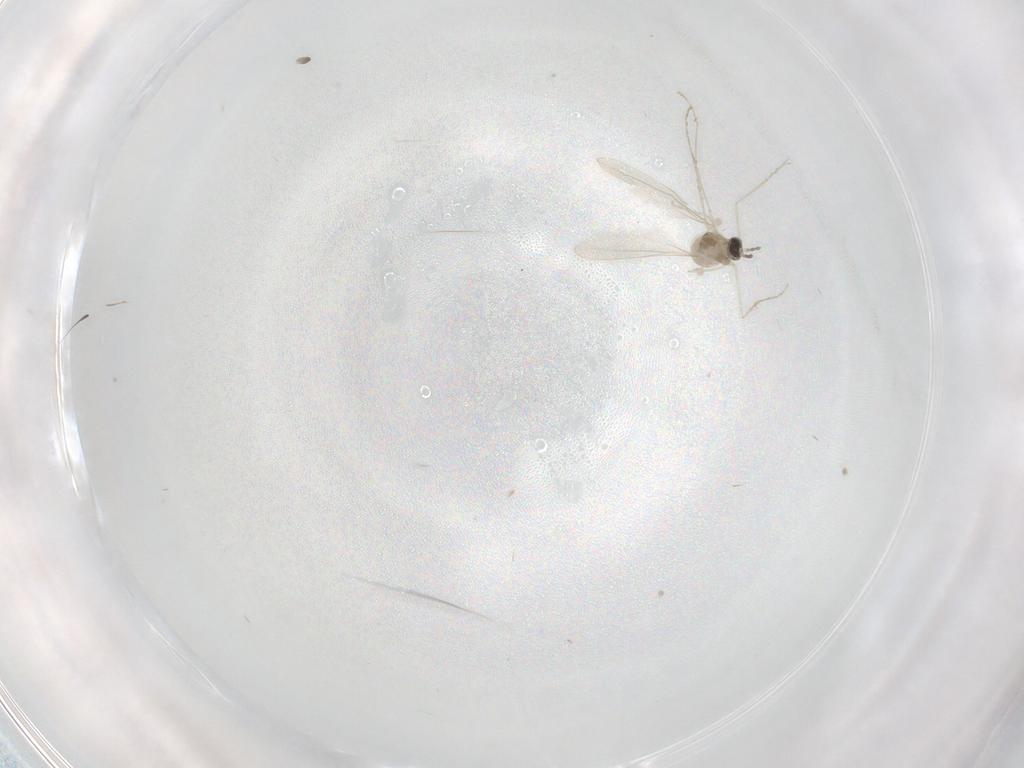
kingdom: Animalia
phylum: Arthropoda
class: Insecta
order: Diptera
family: Cecidomyiidae
